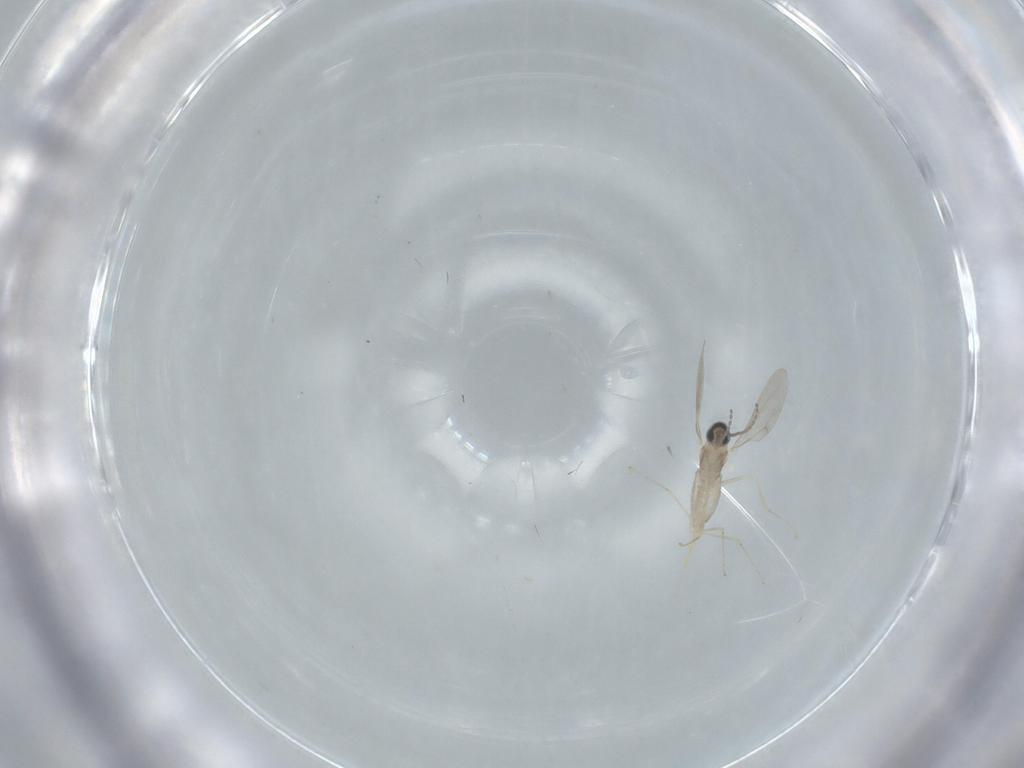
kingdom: Animalia
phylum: Arthropoda
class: Insecta
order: Diptera
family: Cecidomyiidae
